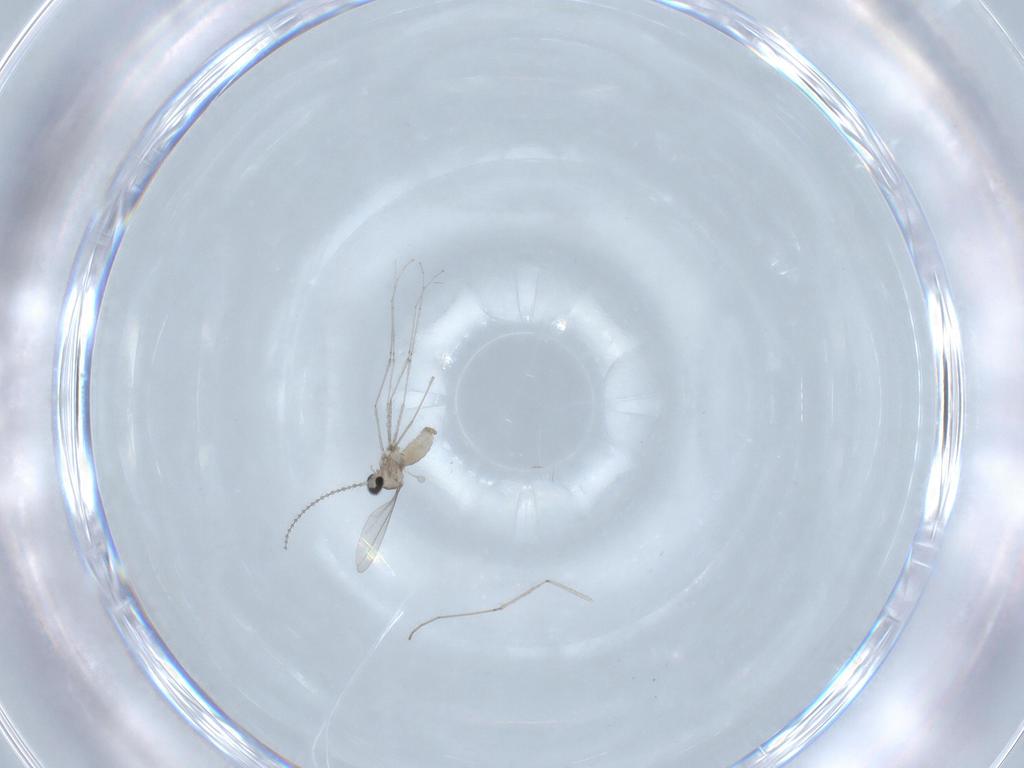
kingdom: Animalia
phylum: Arthropoda
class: Insecta
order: Diptera
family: Cecidomyiidae
